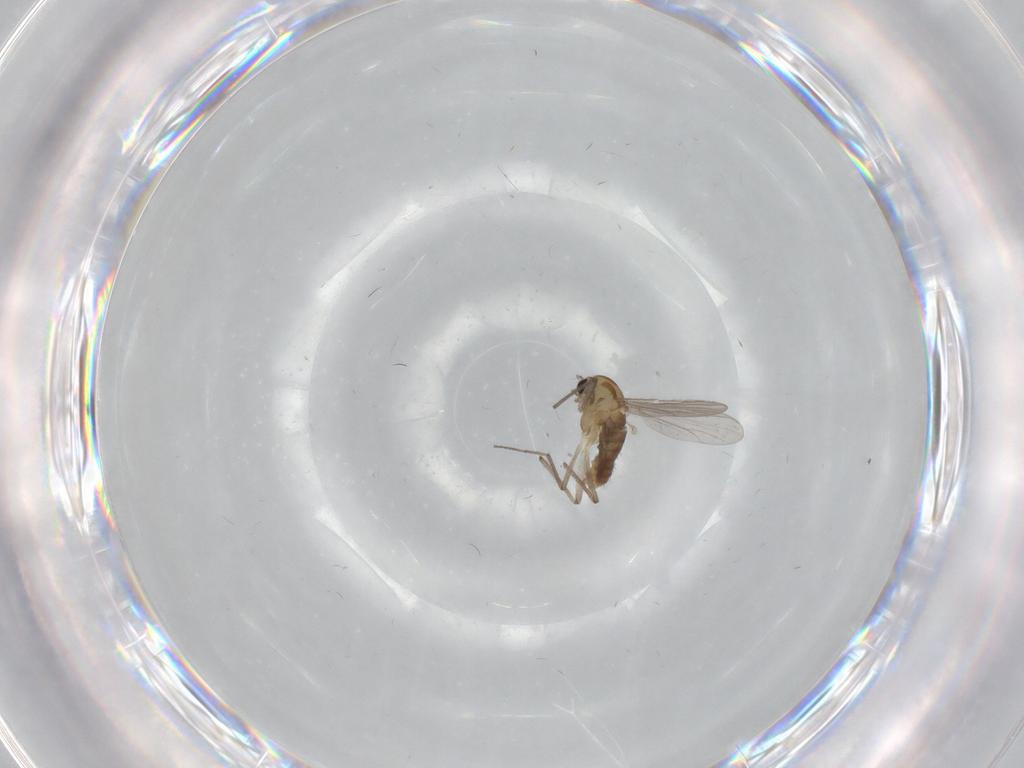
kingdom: Animalia
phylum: Arthropoda
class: Insecta
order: Diptera
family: Chironomidae
